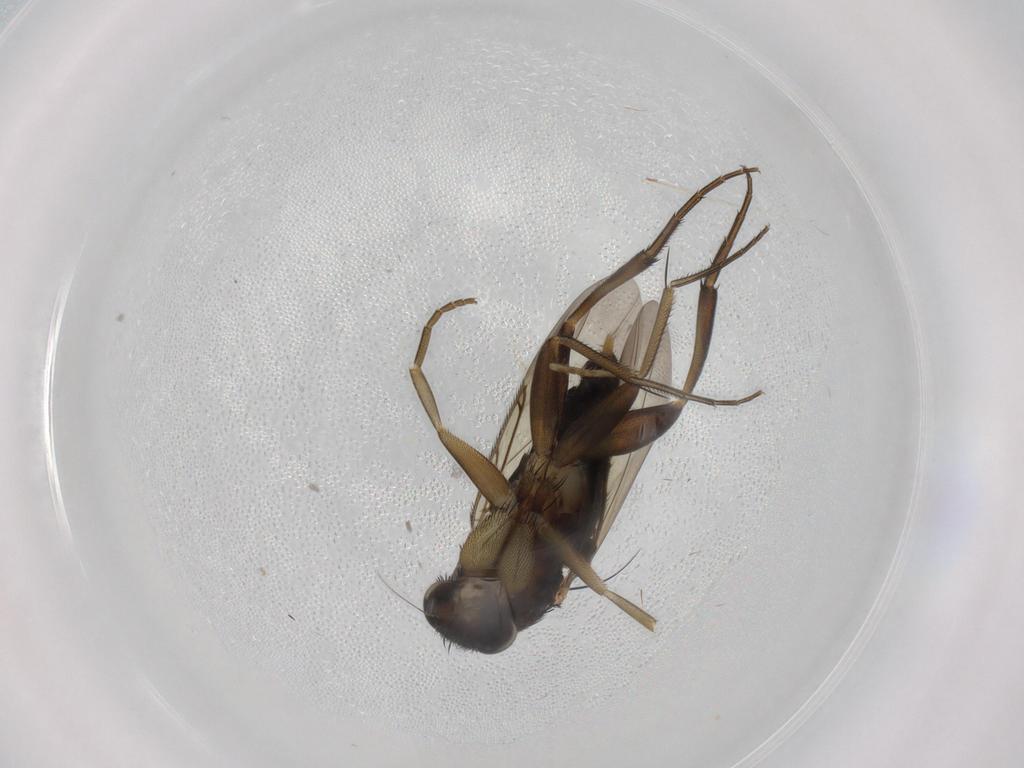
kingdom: Animalia
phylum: Arthropoda
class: Insecta
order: Diptera
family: Phoridae
